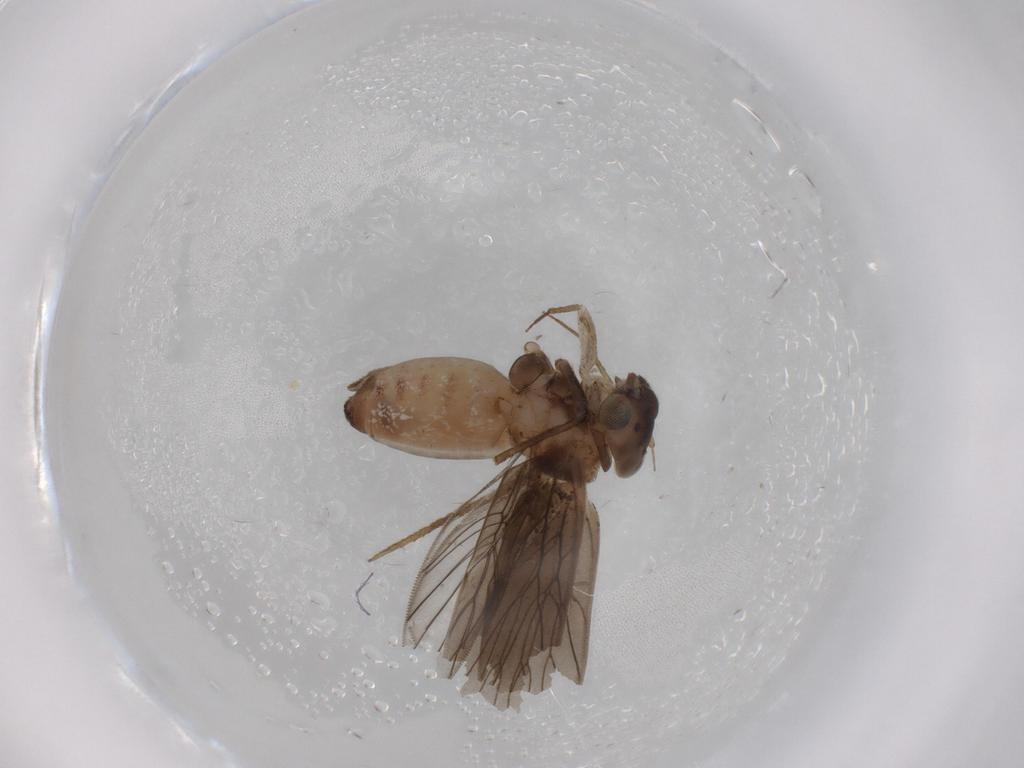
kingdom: Animalia
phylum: Arthropoda
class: Insecta
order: Psocodea
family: Lepidopsocidae
